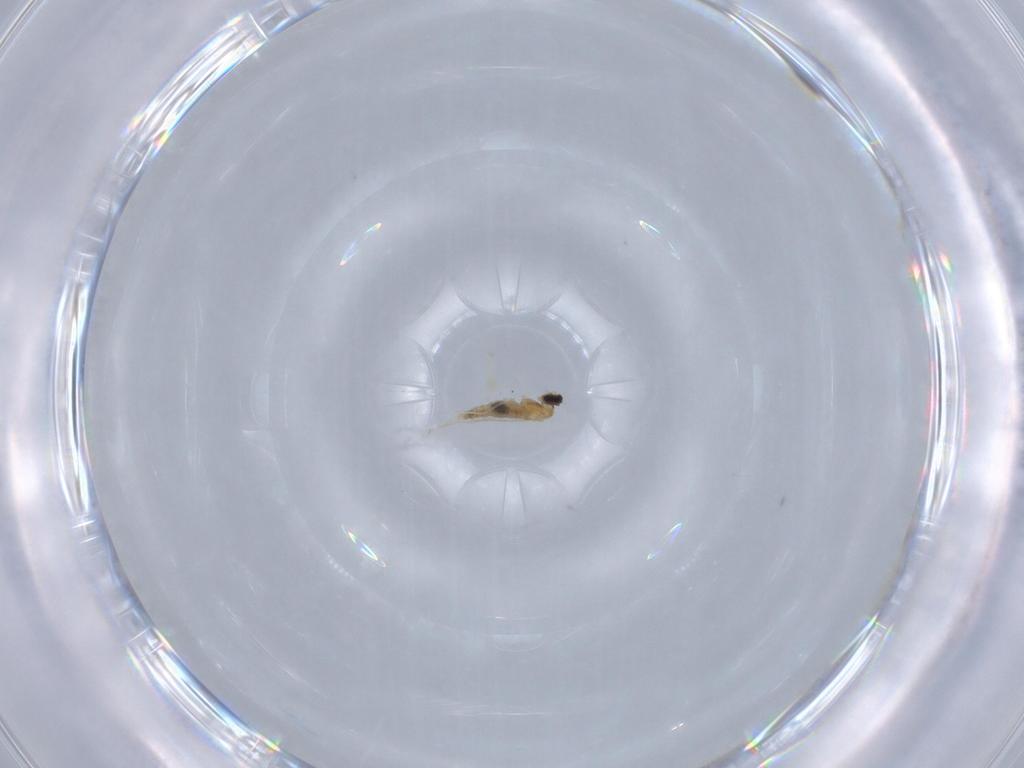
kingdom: Animalia
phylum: Arthropoda
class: Insecta
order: Diptera
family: Cecidomyiidae
